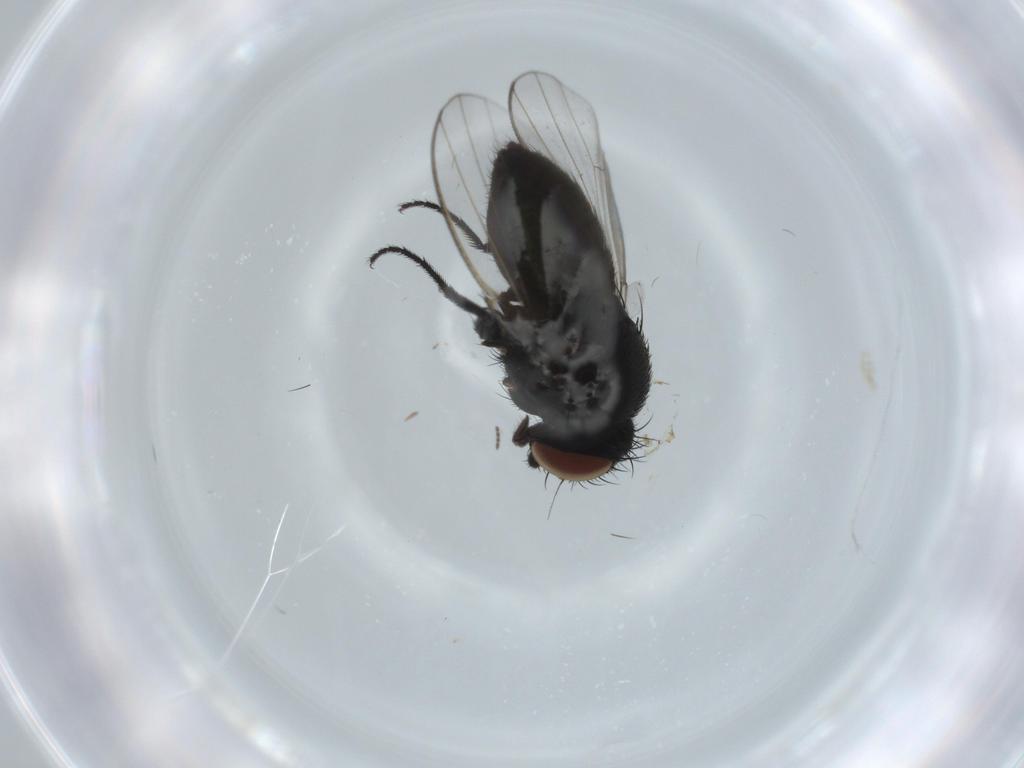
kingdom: Animalia
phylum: Arthropoda
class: Insecta
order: Diptera
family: Milichiidae
